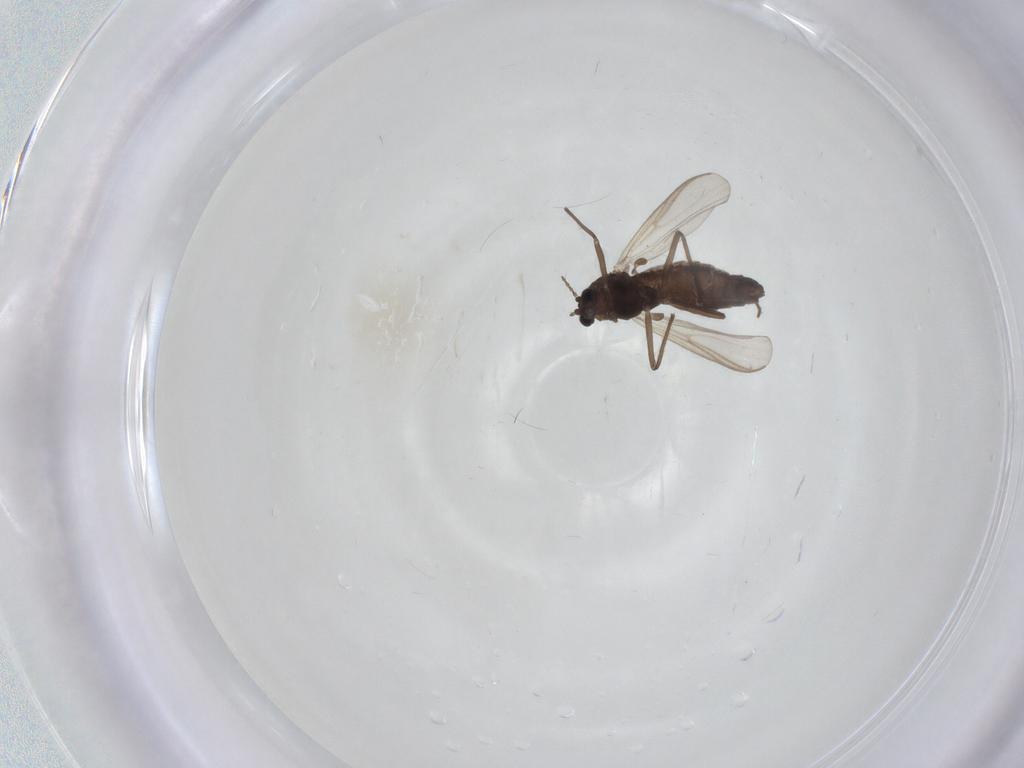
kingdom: Animalia
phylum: Arthropoda
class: Insecta
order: Diptera
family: Chironomidae
